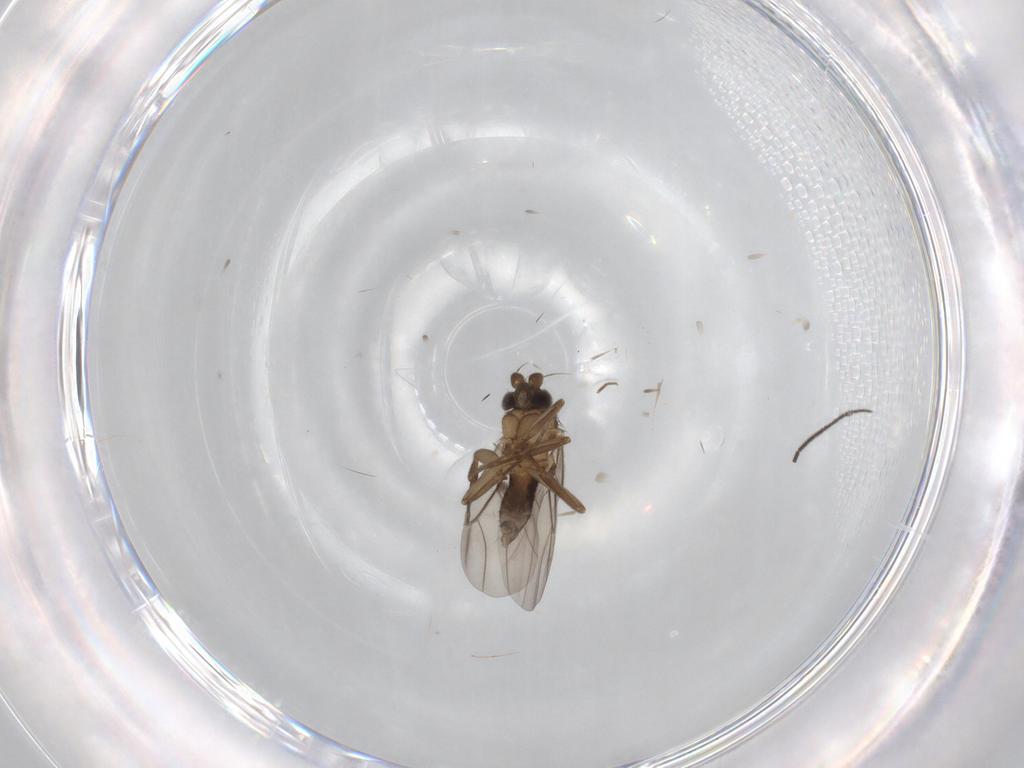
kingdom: Animalia
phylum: Arthropoda
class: Insecta
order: Diptera
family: Phoridae
